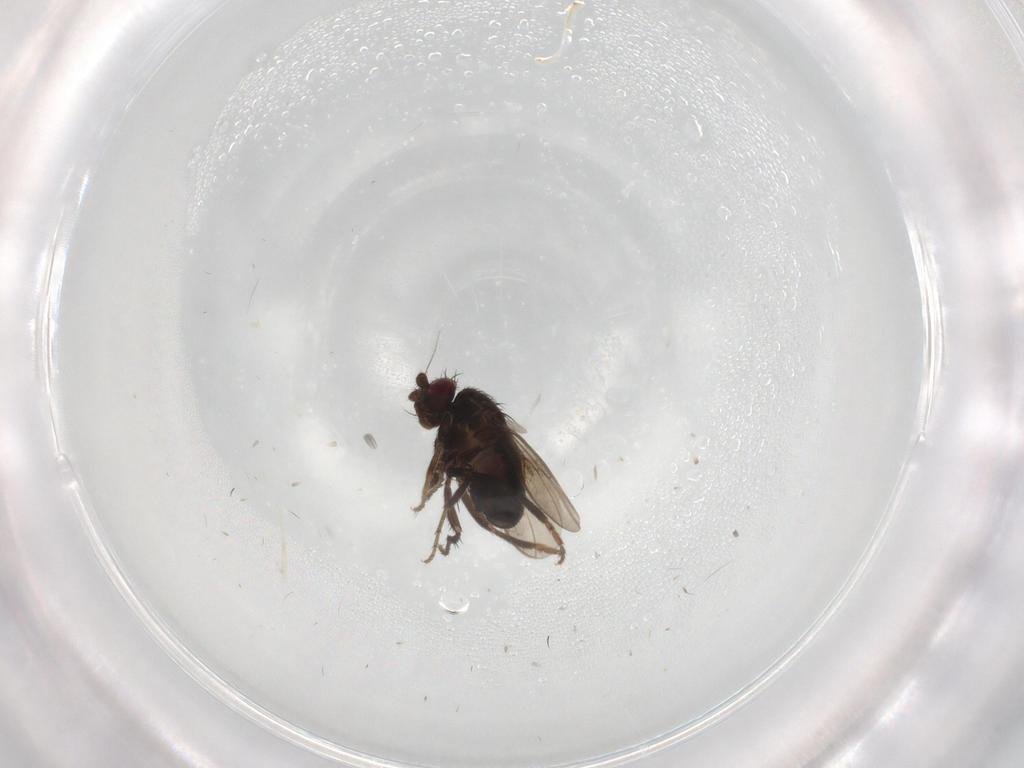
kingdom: Animalia
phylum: Arthropoda
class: Insecta
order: Diptera
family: Sphaeroceridae
